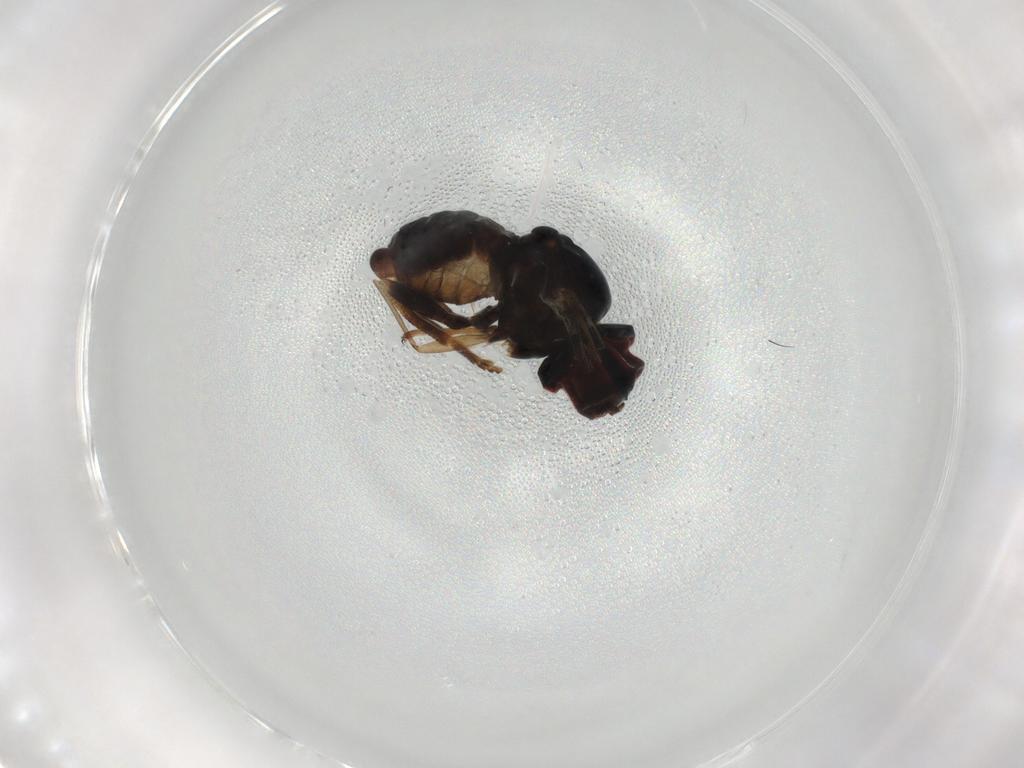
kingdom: Animalia
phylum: Arthropoda
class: Insecta
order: Diptera
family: Pipunculidae
